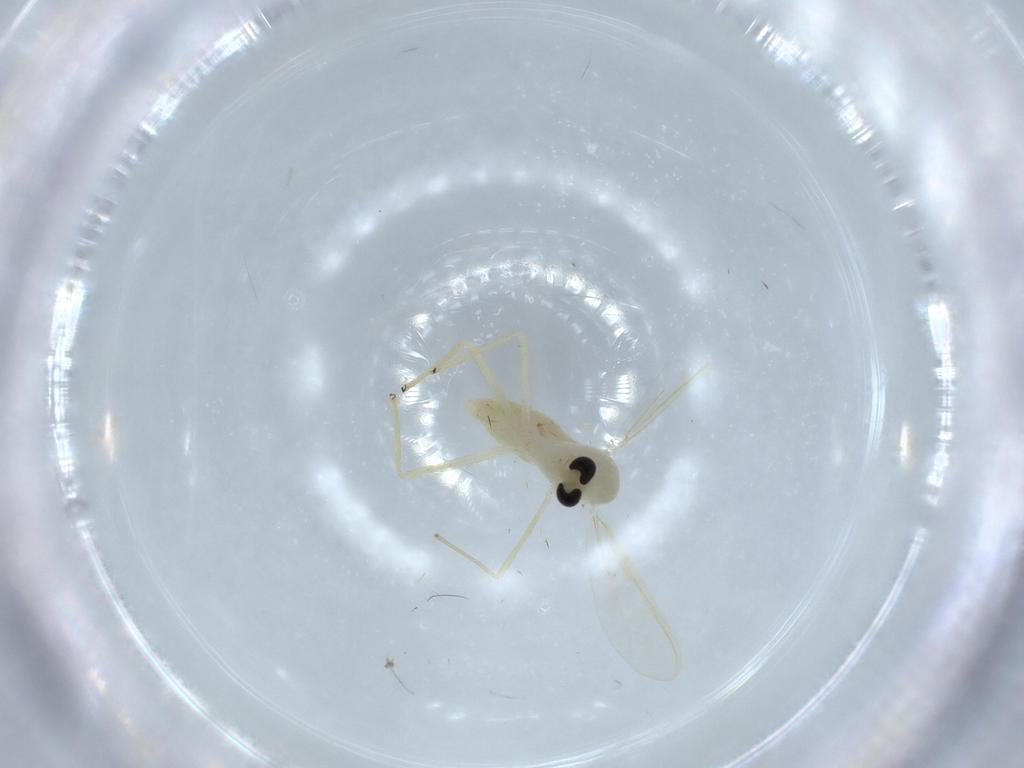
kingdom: Animalia
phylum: Arthropoda
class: Insecta
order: Diptera
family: Chironomidae
